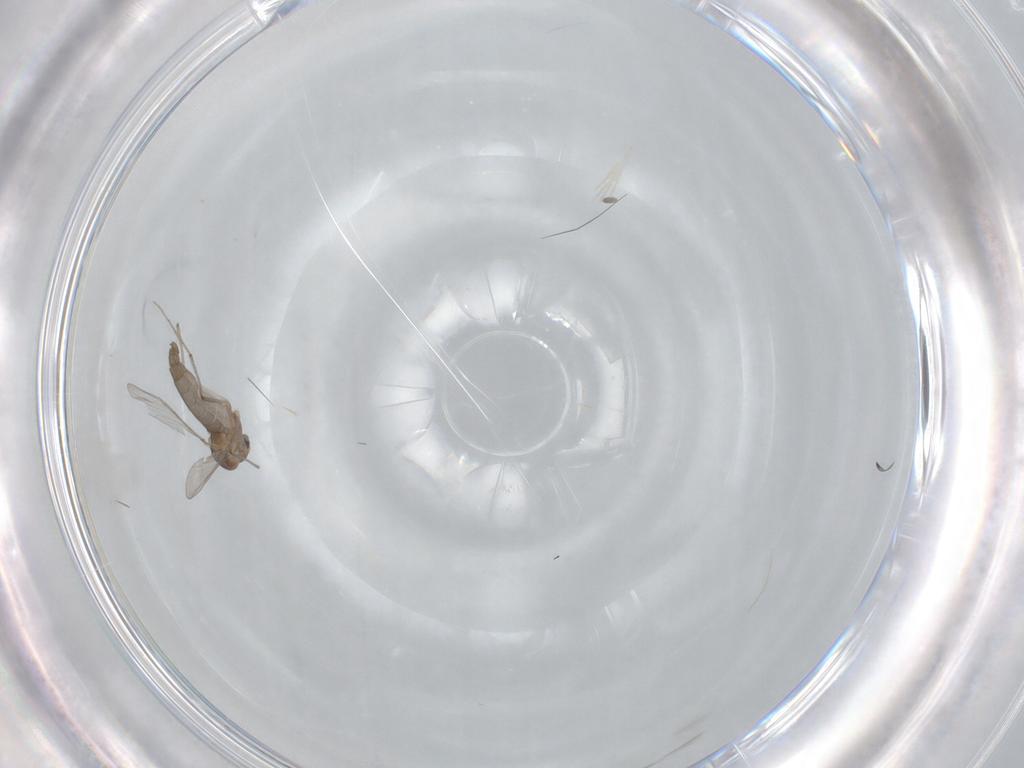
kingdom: Animalia
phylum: Arthropoda
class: Insecta
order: Diptera
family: Chironomidae
